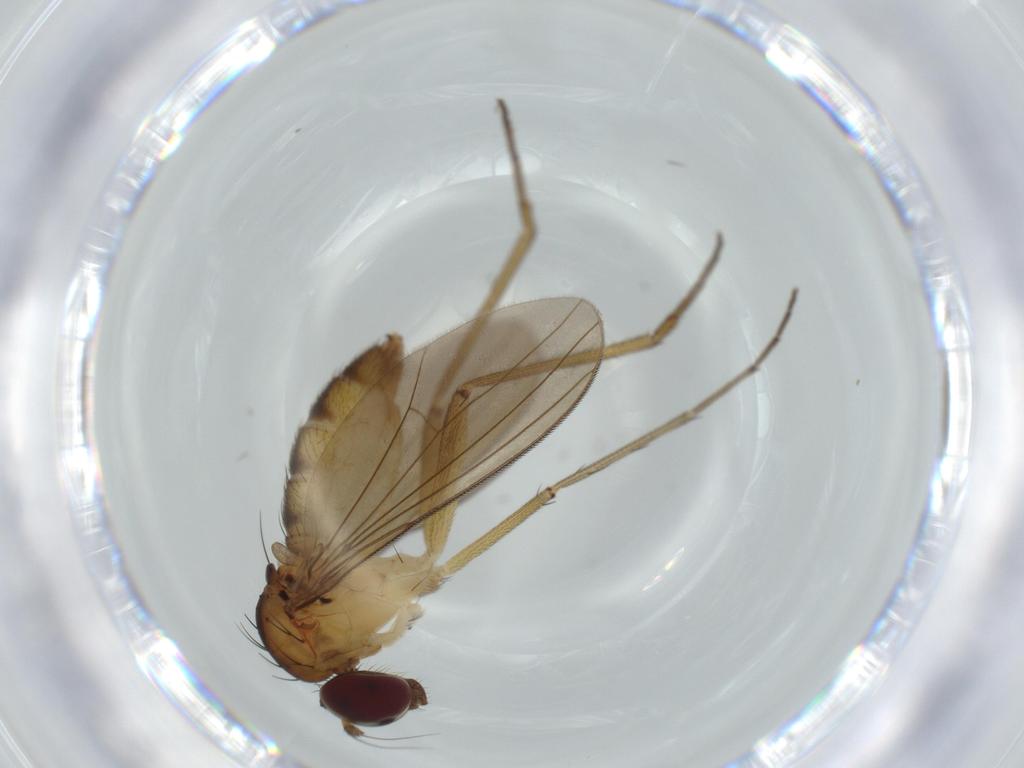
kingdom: Animalia
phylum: Arthropoda
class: Insecta
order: Diptera
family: Dolichopodidae
